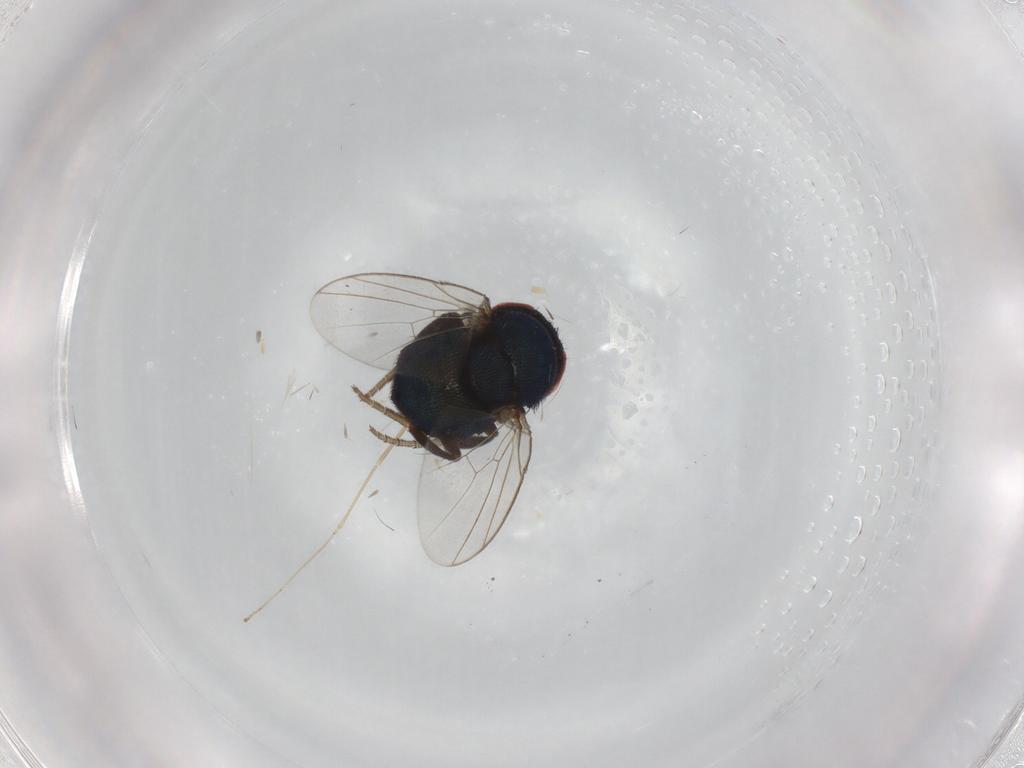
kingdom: Animalia
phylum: Arthropoda
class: Insecta
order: Diptera
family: Cryptochetidae
